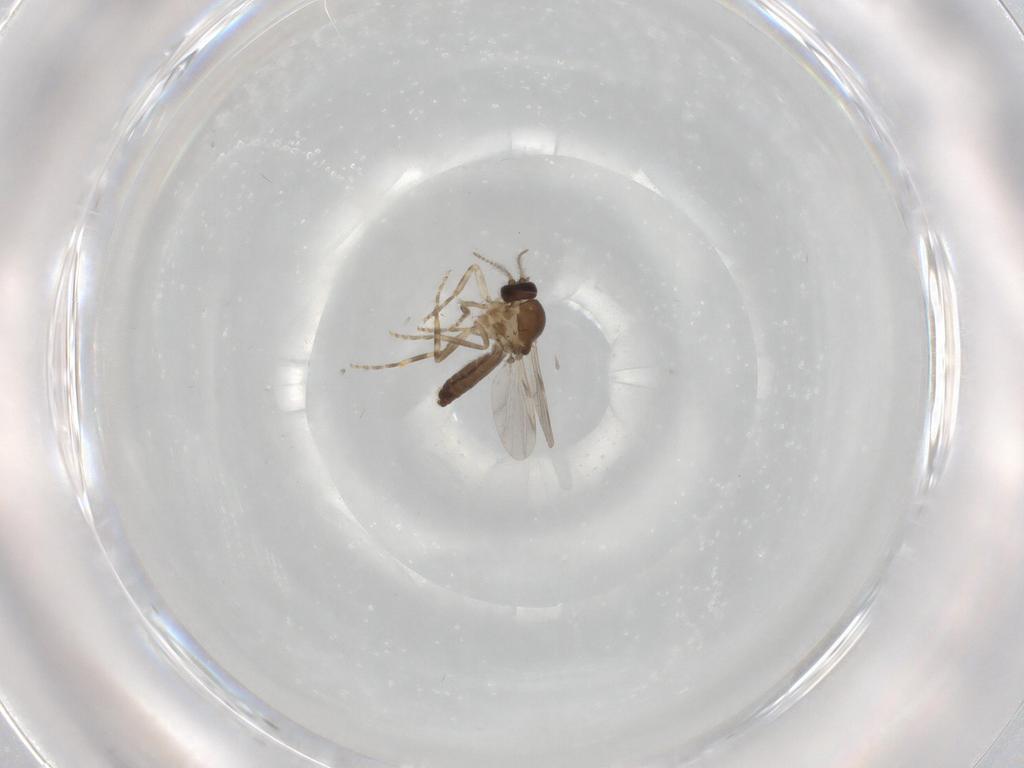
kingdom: Animalia
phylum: Arthropoda
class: Insecta
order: Diptera
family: Ceratopogonidae
